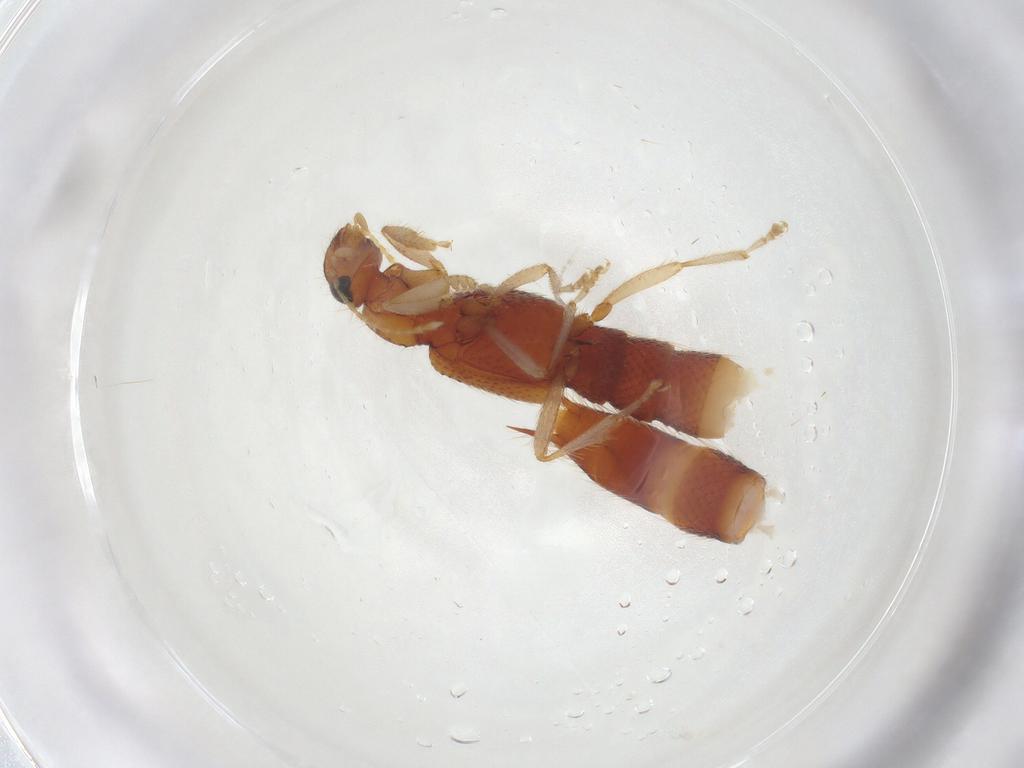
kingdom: Animalia
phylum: Arthropoda
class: Insecta
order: Coleoptera
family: Staphylinidae
